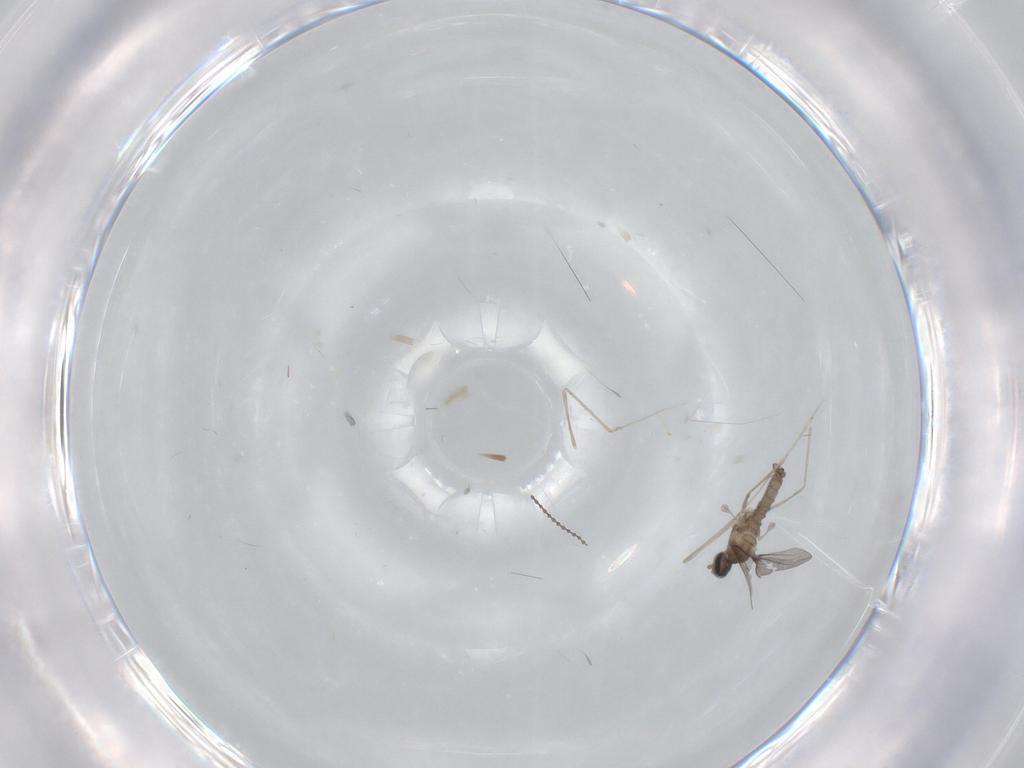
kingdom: Animalia
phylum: Arthropoda
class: Insecta
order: Diptera
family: Cecidomyiidae
